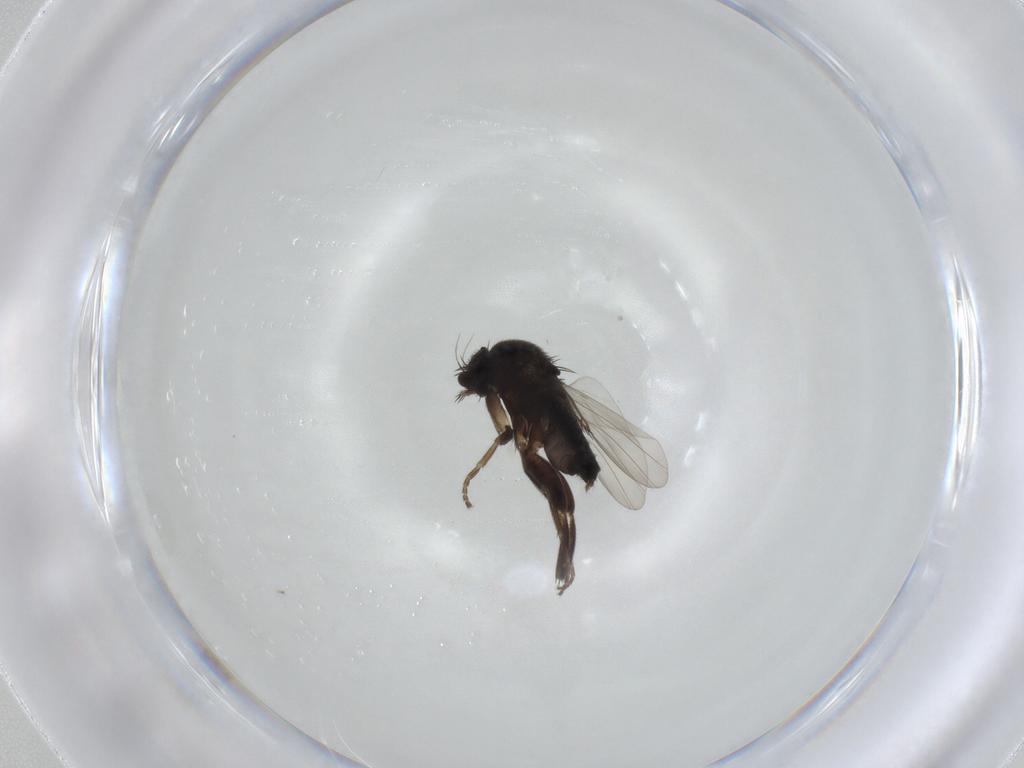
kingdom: Animalia
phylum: Arthropoda
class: Insecta
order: Diptera
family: Phoridae
